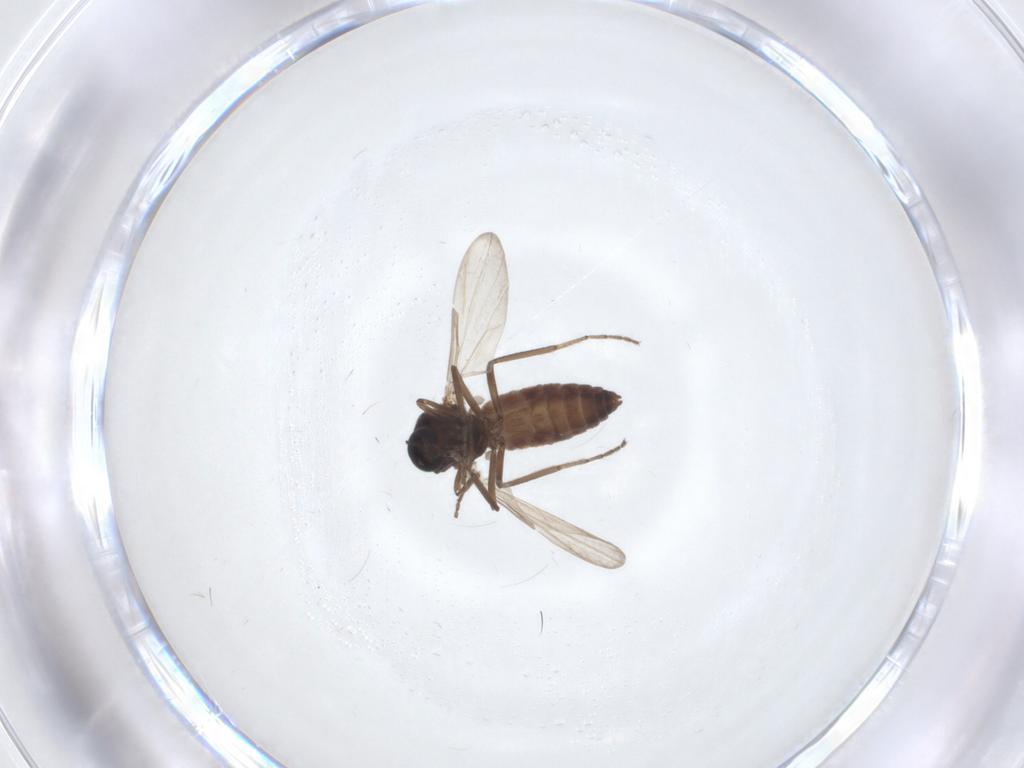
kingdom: Animalia
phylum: Arthropoda
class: Insecta
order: Diptera
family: Ceratopogonidae
